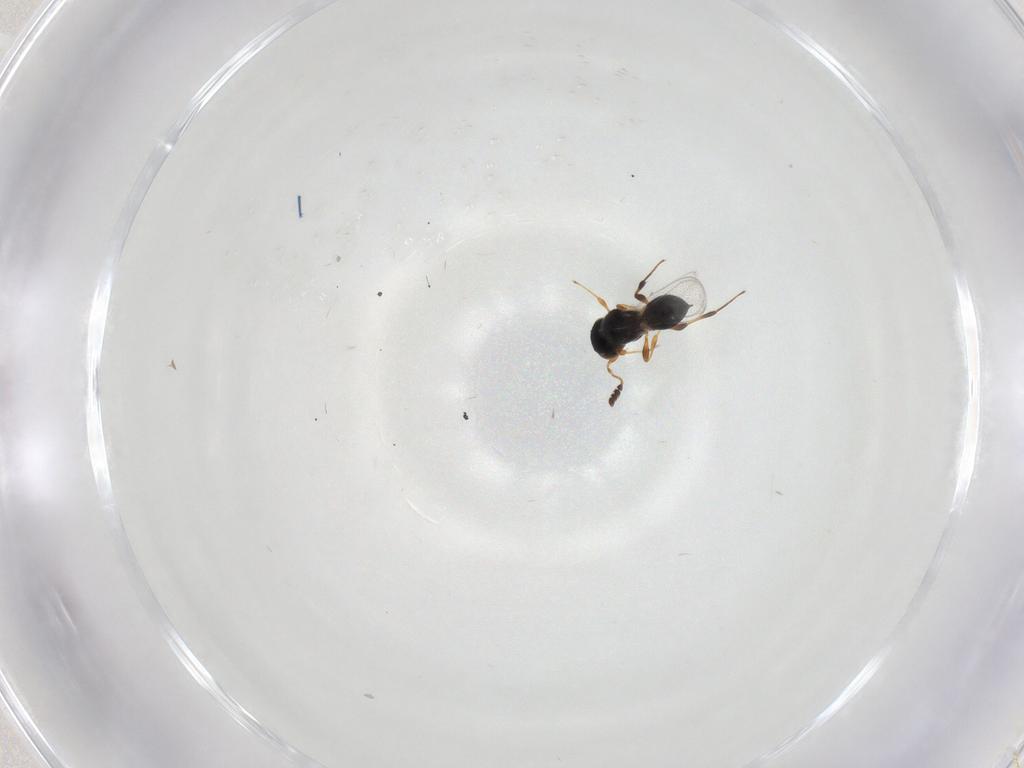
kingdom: Animalia
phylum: Arthropoda
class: Insecta
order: Hymenoptera
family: Platygastridae
